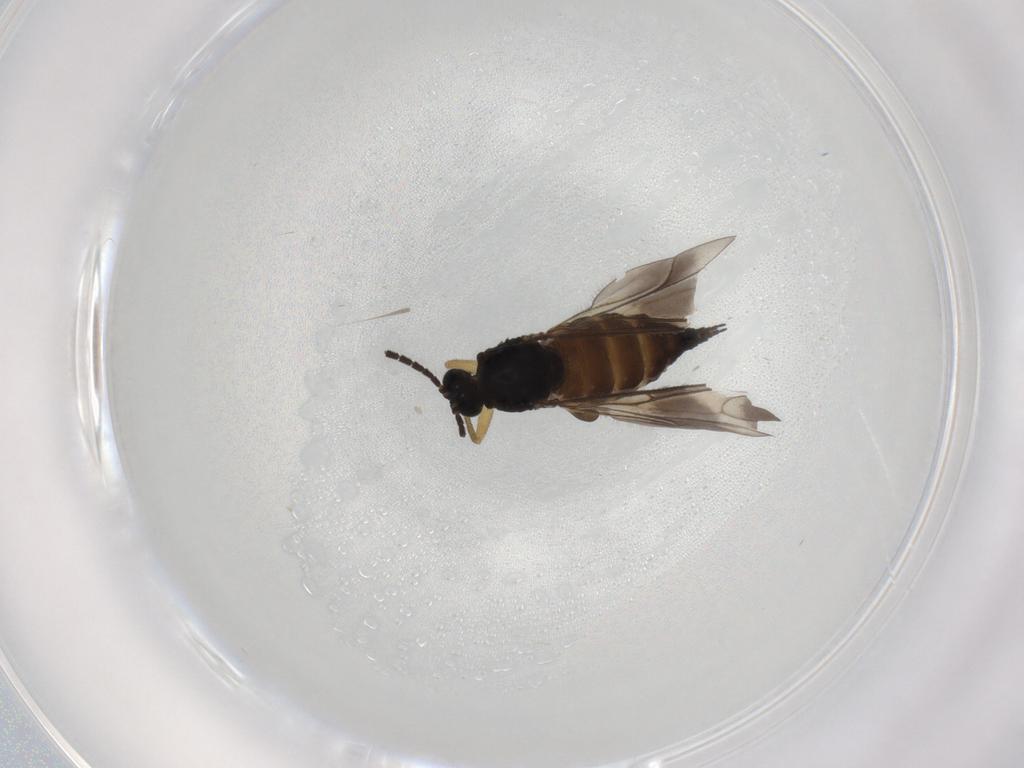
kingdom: Animalia
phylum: Arthropoda
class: Insecta
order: Diptera
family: Sciaridae
